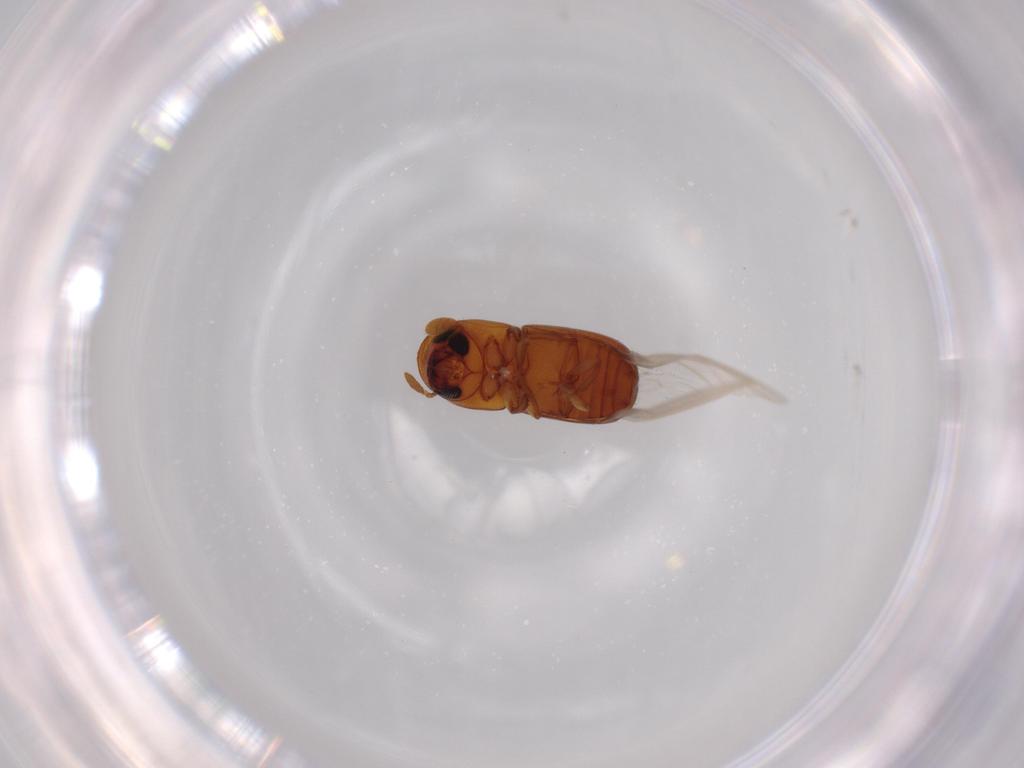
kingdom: Animalia
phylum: Arthropoda
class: Insecta
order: Coleoptera
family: Curculionidae
